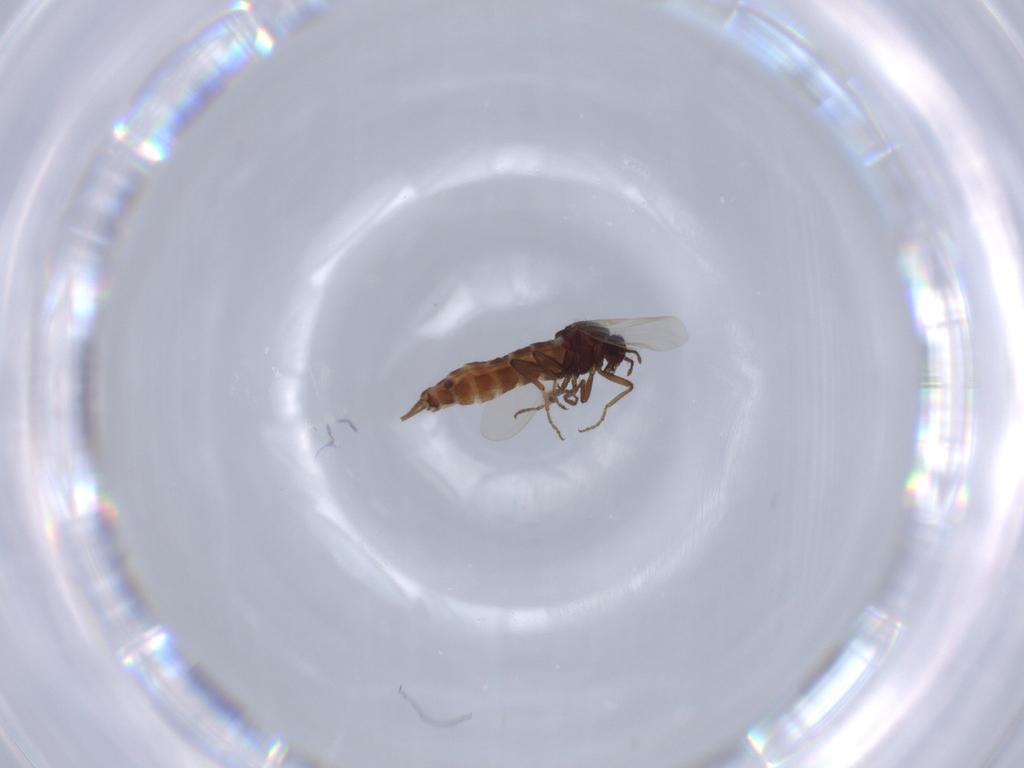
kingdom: Animalia
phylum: Arthropoda
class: Insecta
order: Diptera
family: Ceratopogonidae
